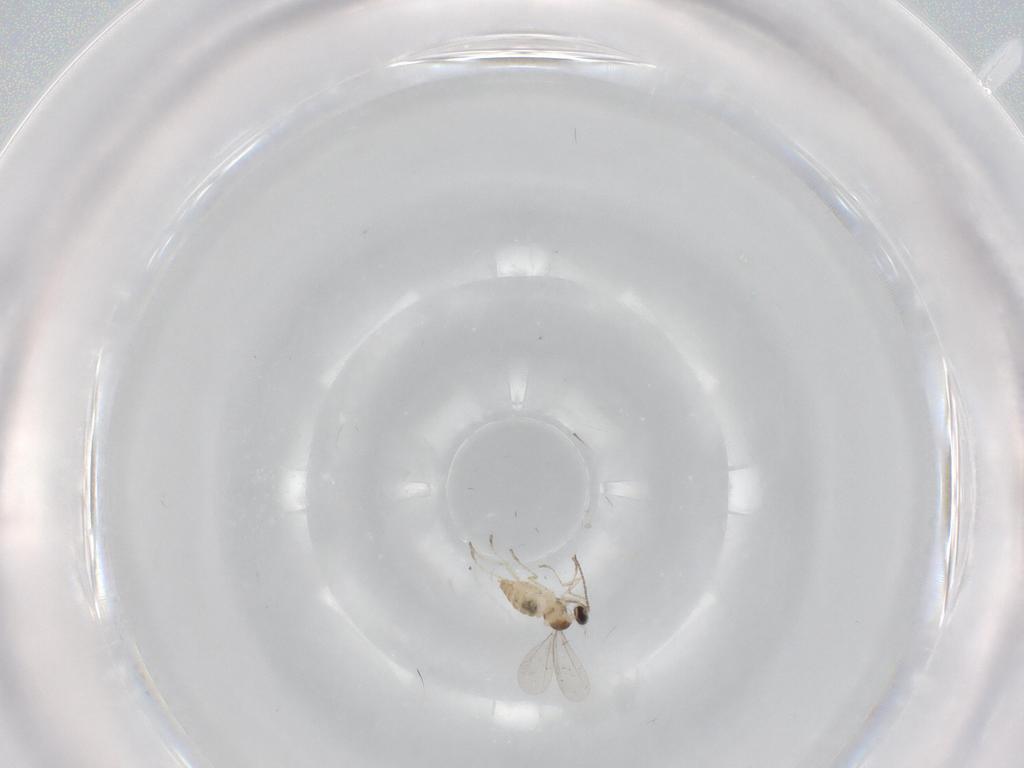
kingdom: Animalia
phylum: Arthropoda
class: Insecta
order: Diptera
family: Cecidomyiidae
